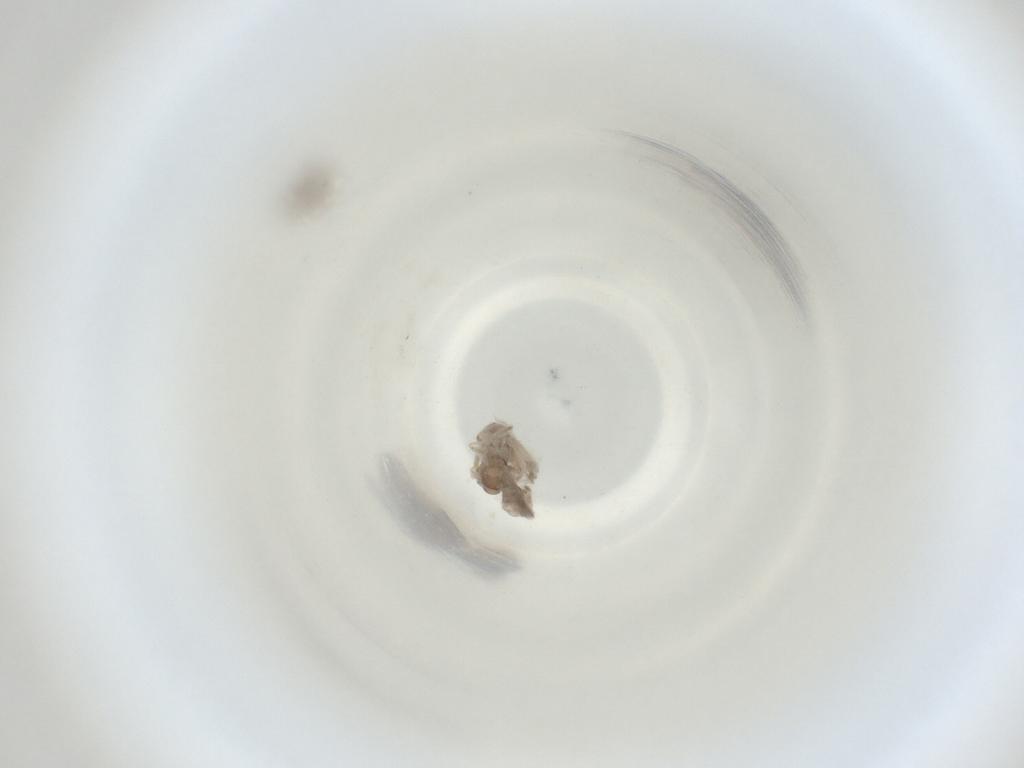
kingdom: Animalia
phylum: Arthropoda
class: Insecta
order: Diptera
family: Cecidomyiidae
